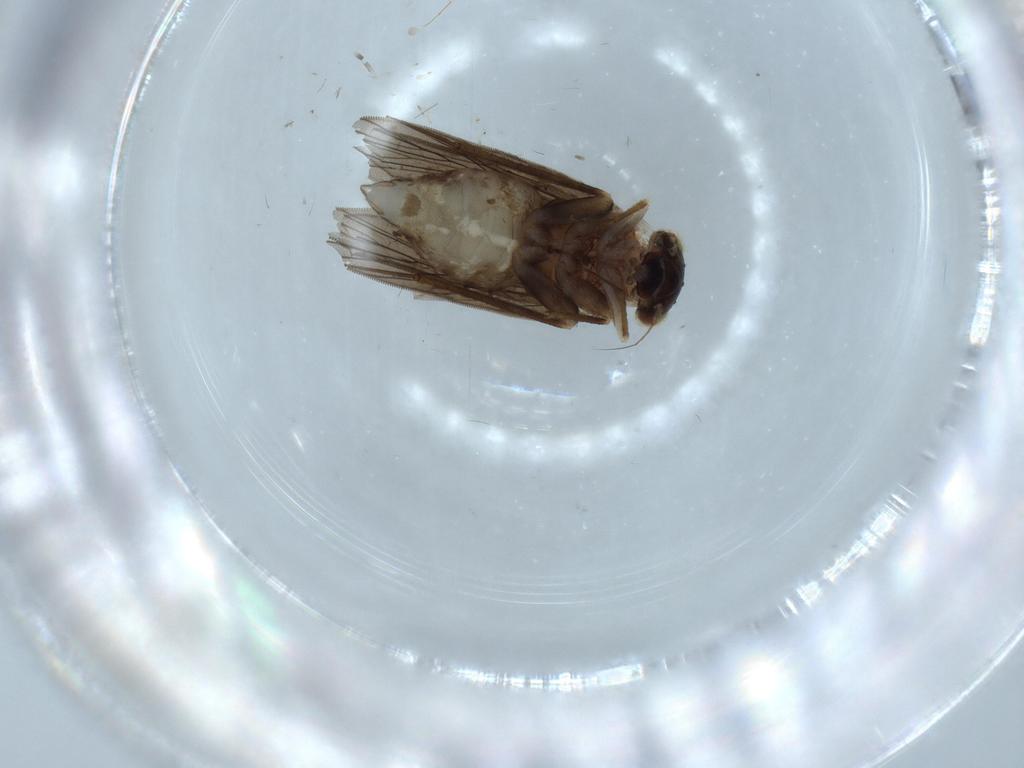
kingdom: Animalia
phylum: Arthropoda
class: Insecta
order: Psocodea
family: Lepidopsocidae
